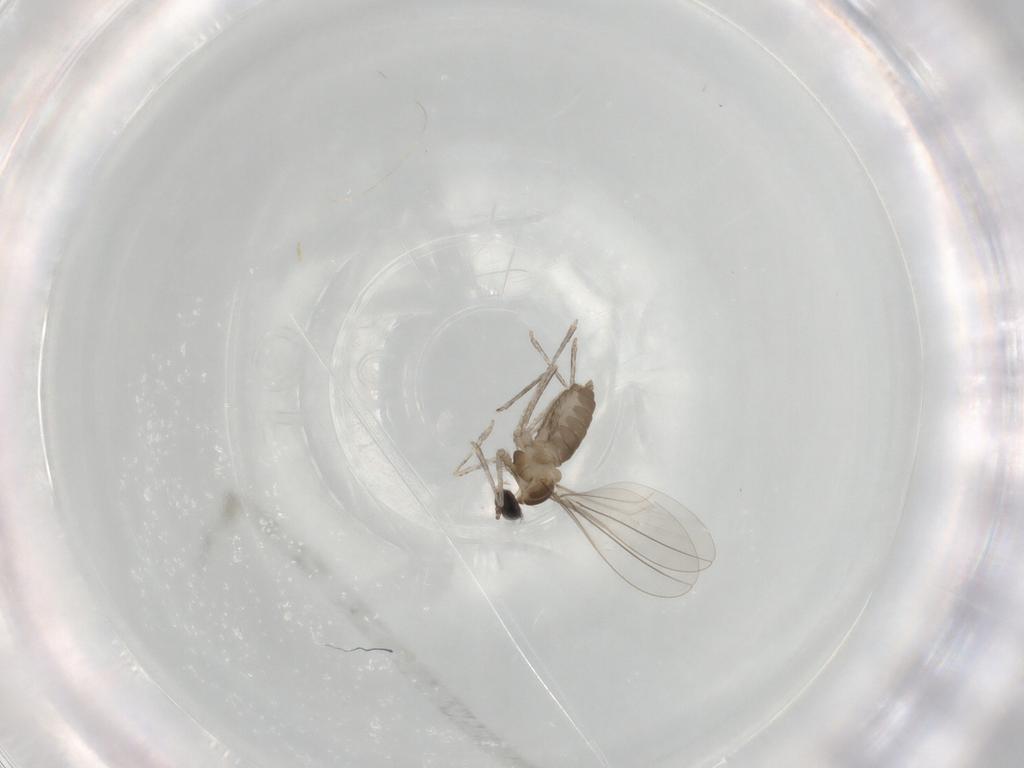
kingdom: Animalia
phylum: Arthropoda
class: Insecta
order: Diptera
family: Cecidomyiidae
